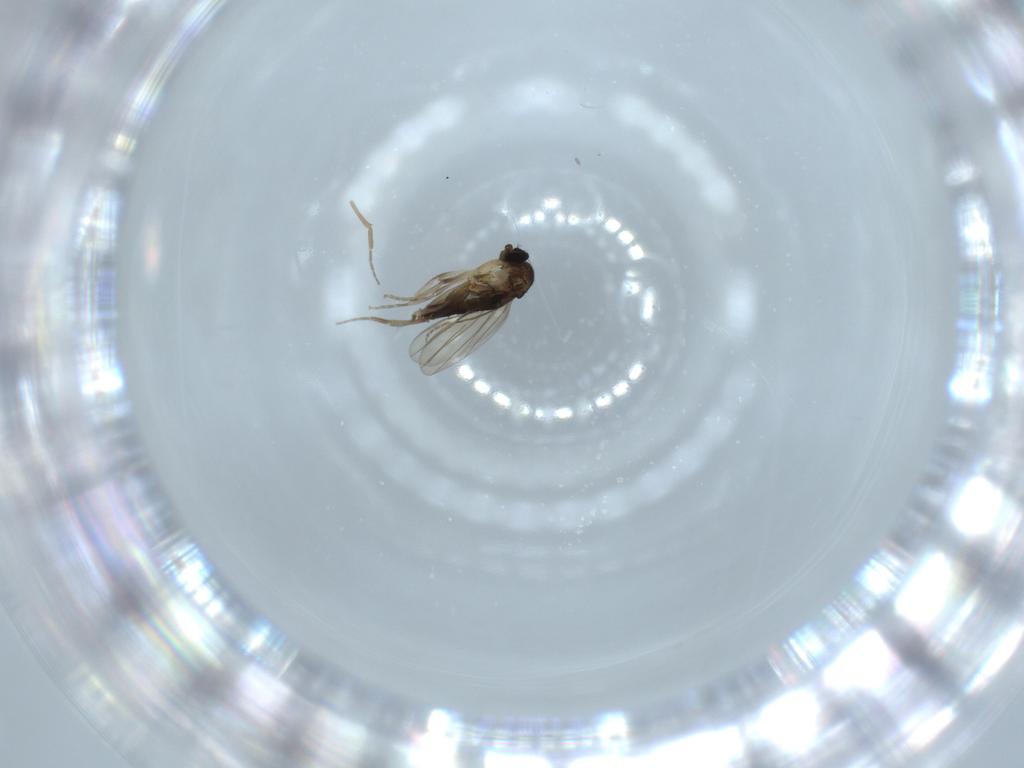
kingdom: Animalia
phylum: Arthropoda
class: Insecta
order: Diptera
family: Phoridae
